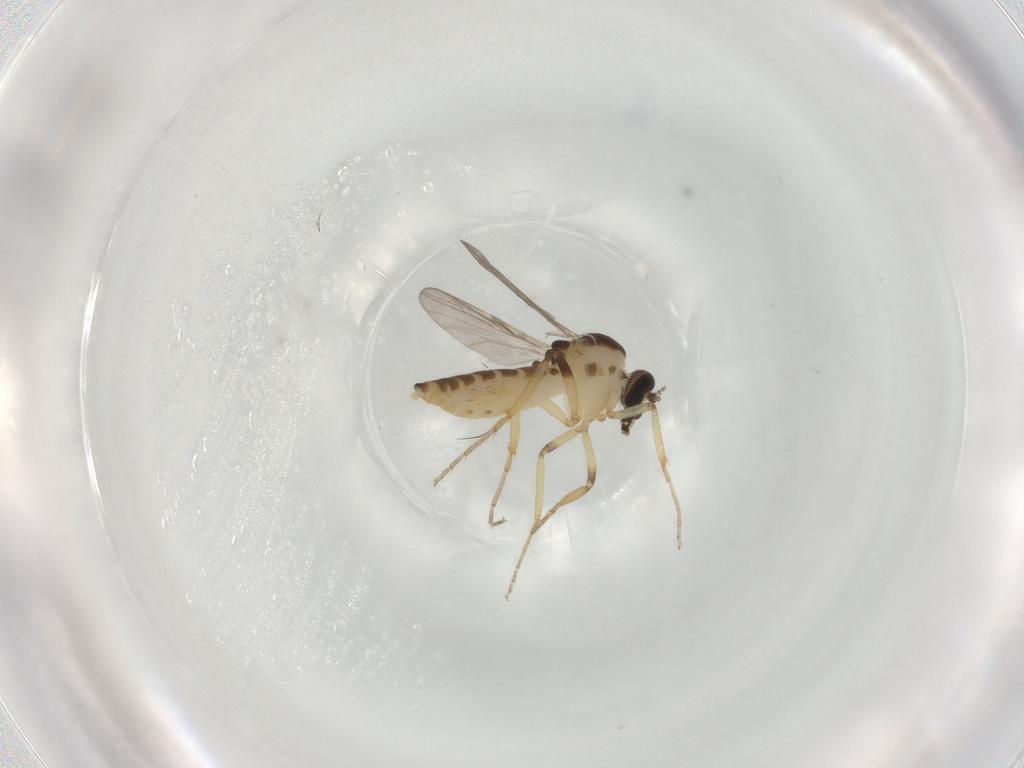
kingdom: Animalia
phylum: Arthropoda
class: Insecta
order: Diptera
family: Ceratopogonidae
